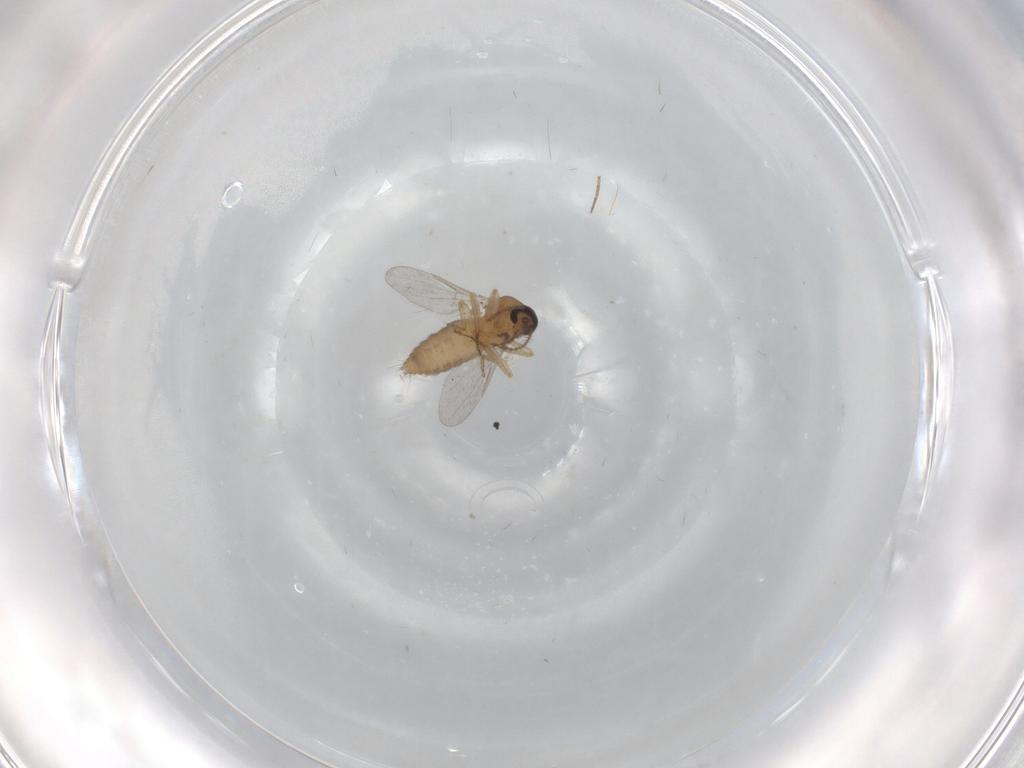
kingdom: Animalia
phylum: Arthropoda
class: Insecta
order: Diptera
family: Ceratopogonidae
